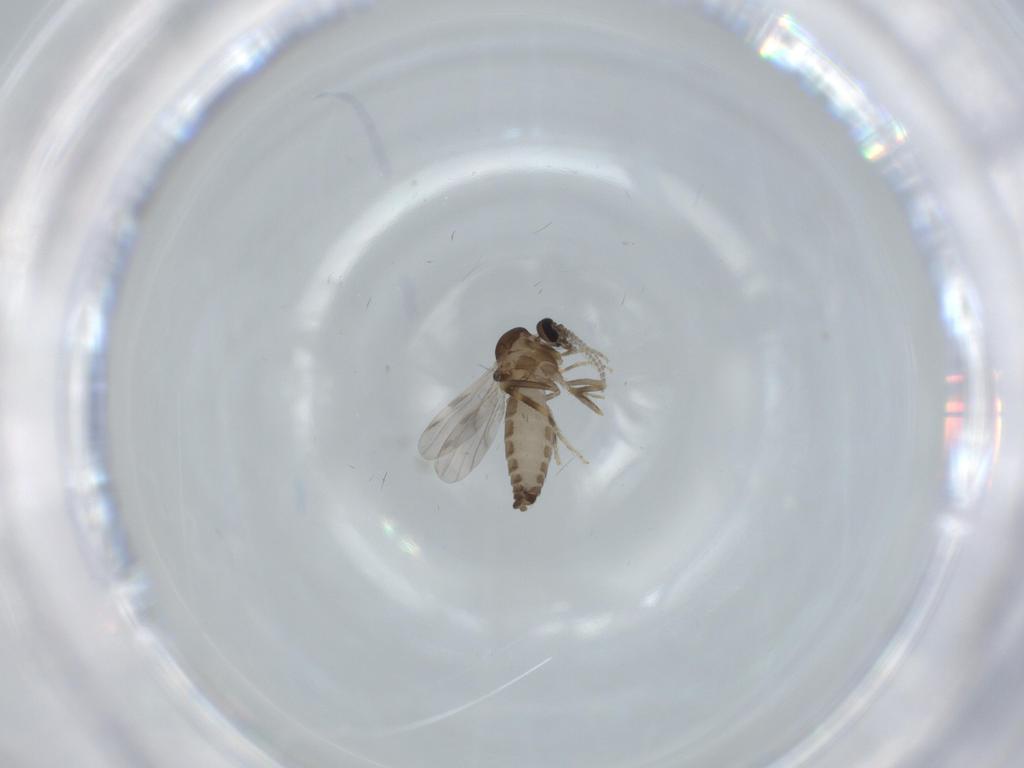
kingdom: Animalia
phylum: Arthropoda
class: Insecta
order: Diptera
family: Ceratopogonidae
